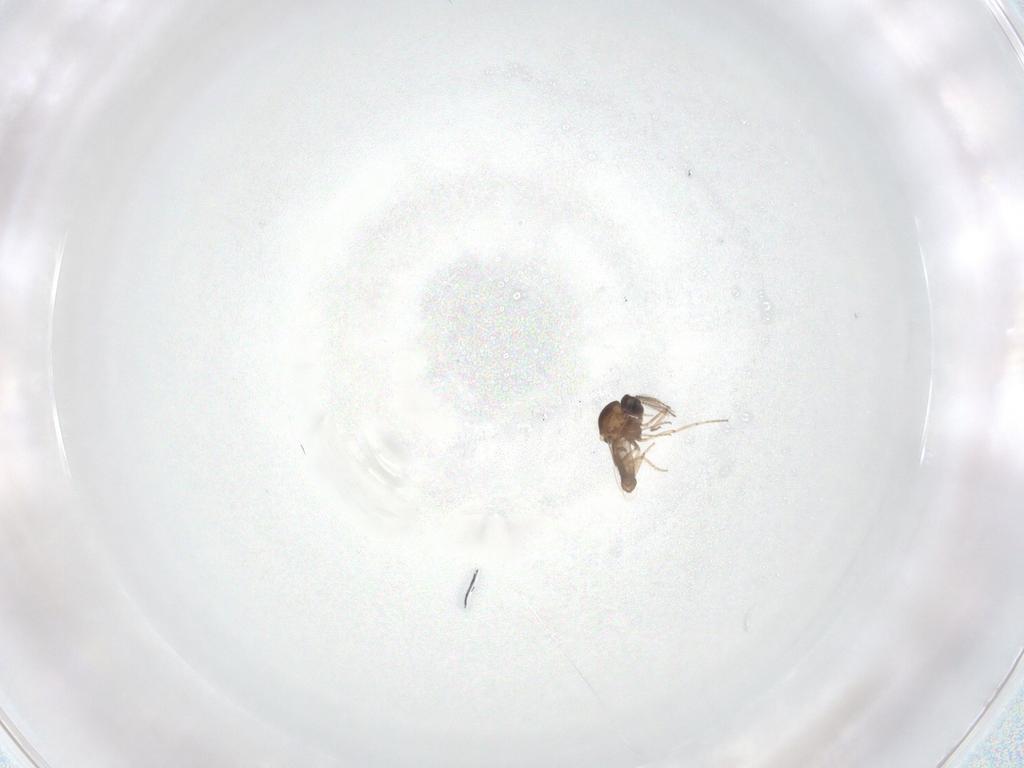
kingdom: Animalia
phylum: Arthropoda
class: Insecta
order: Diptera
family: Ceratopogonidae
